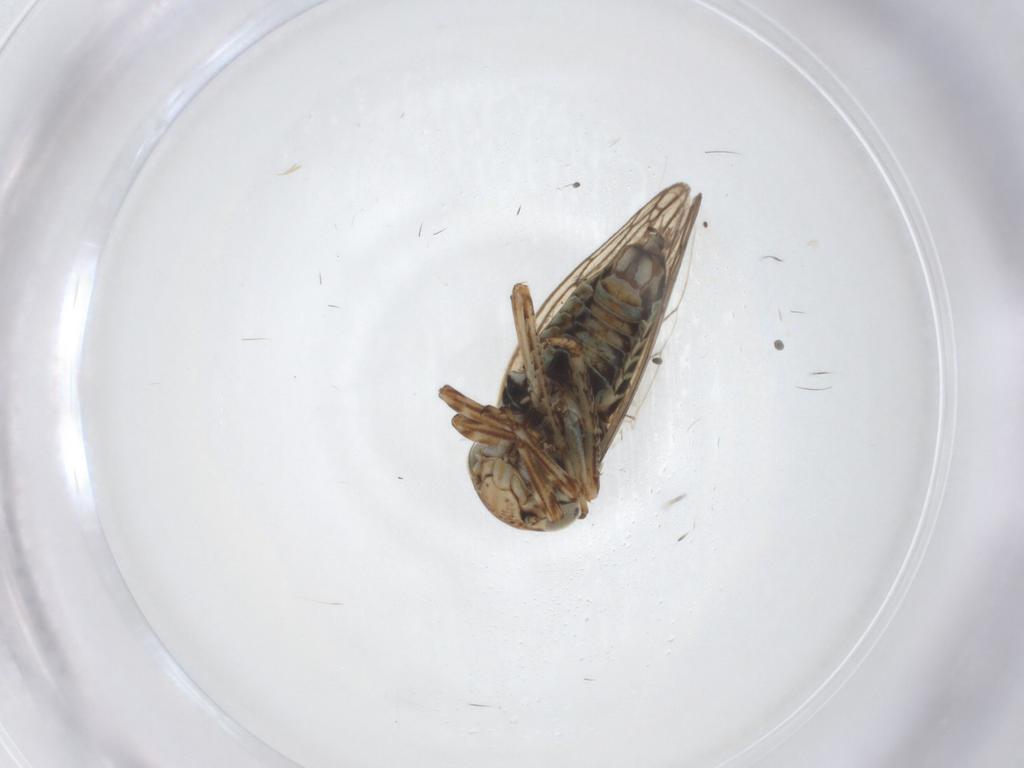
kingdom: Animalia
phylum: Arthropoda
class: Insecta
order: Hemiptera
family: Cicadellidae
